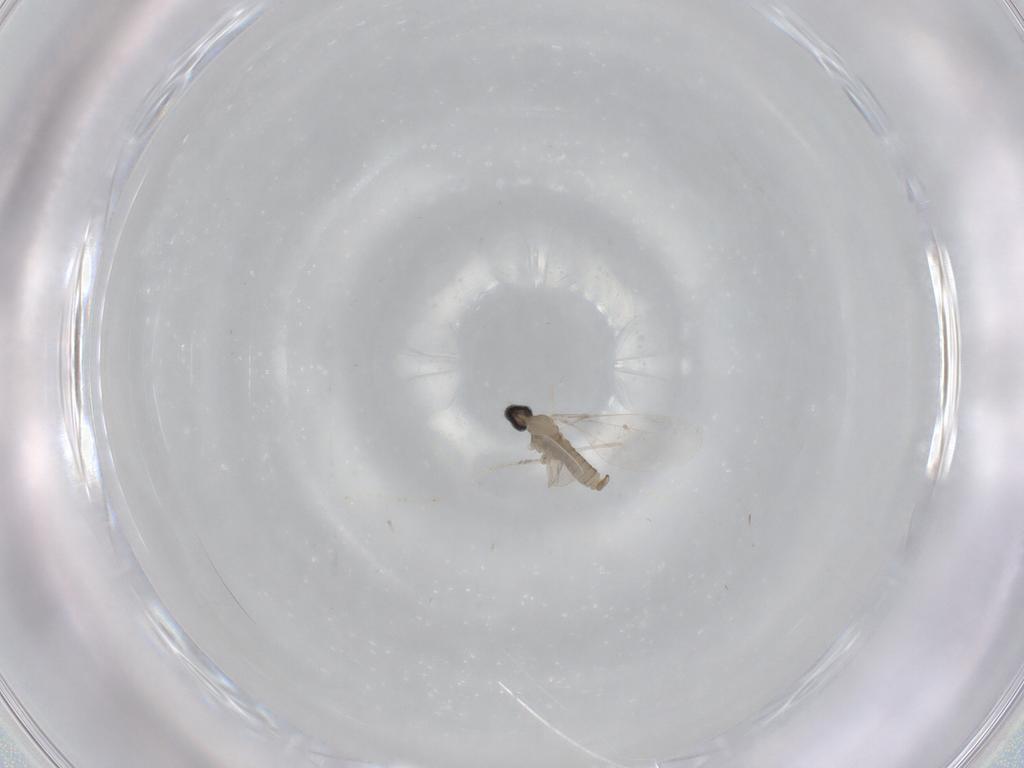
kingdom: Animalia
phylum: Arthropoda
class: Insecta
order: Diptera
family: Cecidomyiidae
